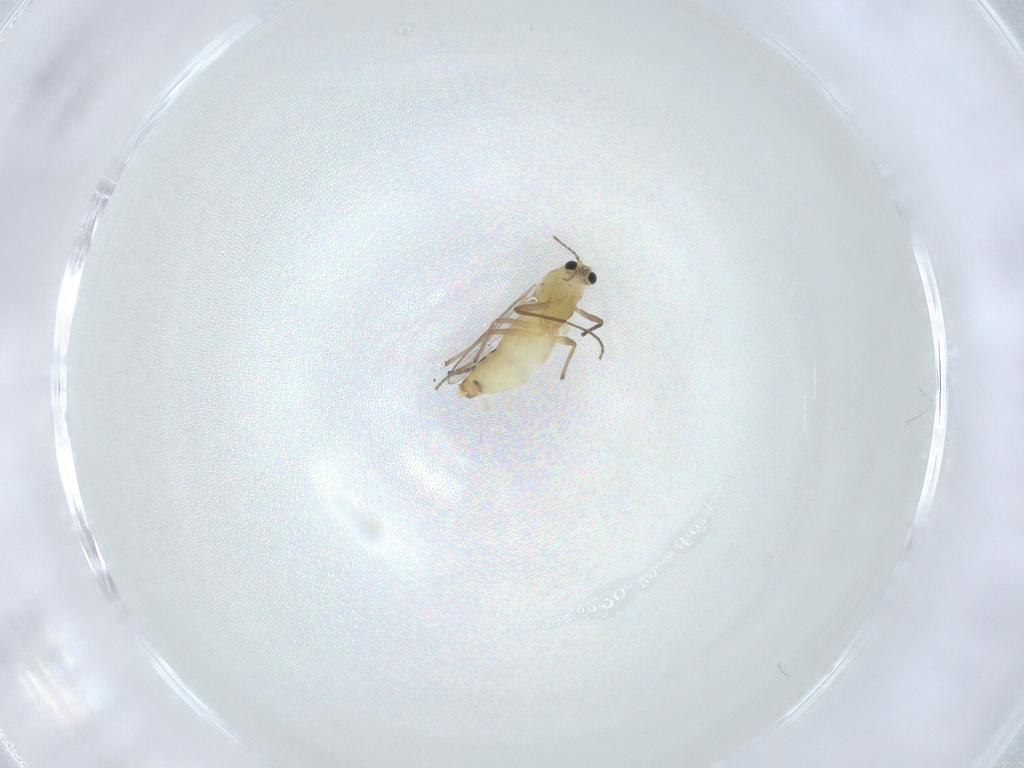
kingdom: Animalia
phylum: Arthropoda
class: Insecta
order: Diptera
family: Chironomidae
